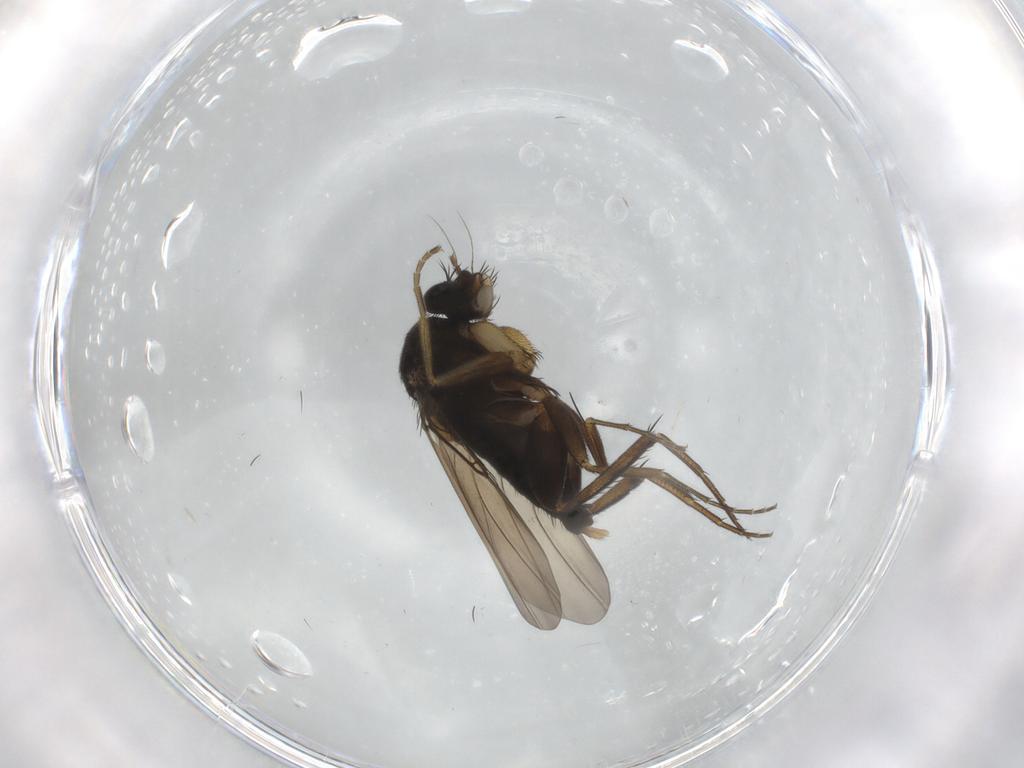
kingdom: Animalia
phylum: Arthropoda
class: Insecta
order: Diptera
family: Phoridae
